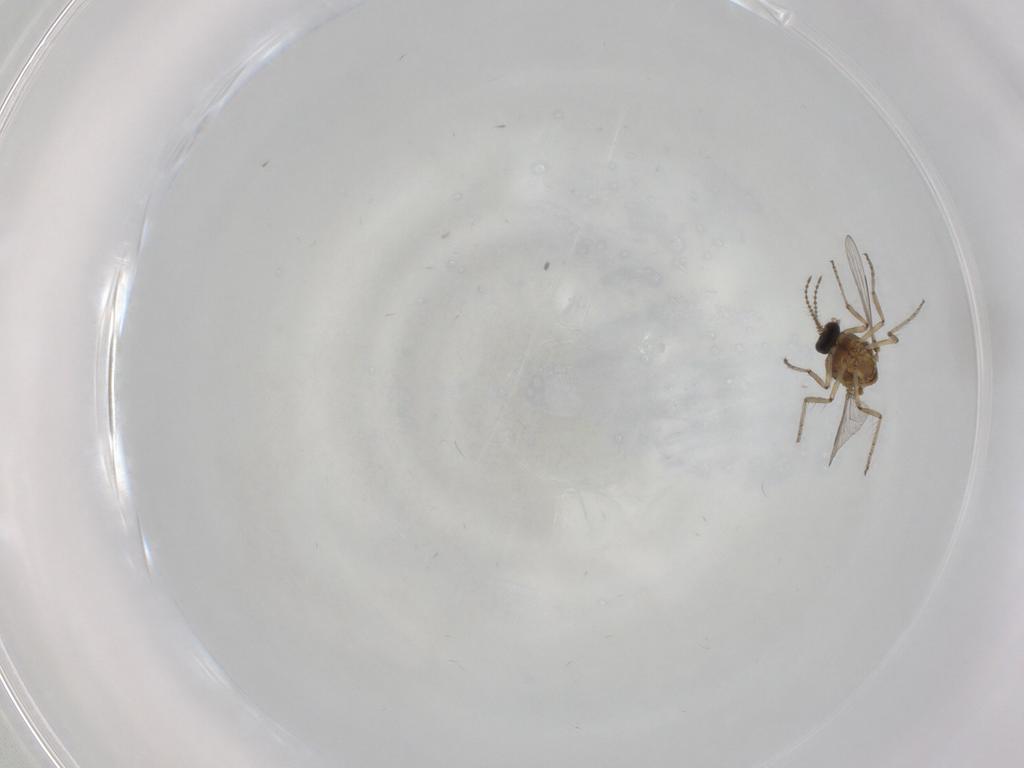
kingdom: Animalia
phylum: Arthropoda
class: Insecta
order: Diptera
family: Ceratopogonidae
